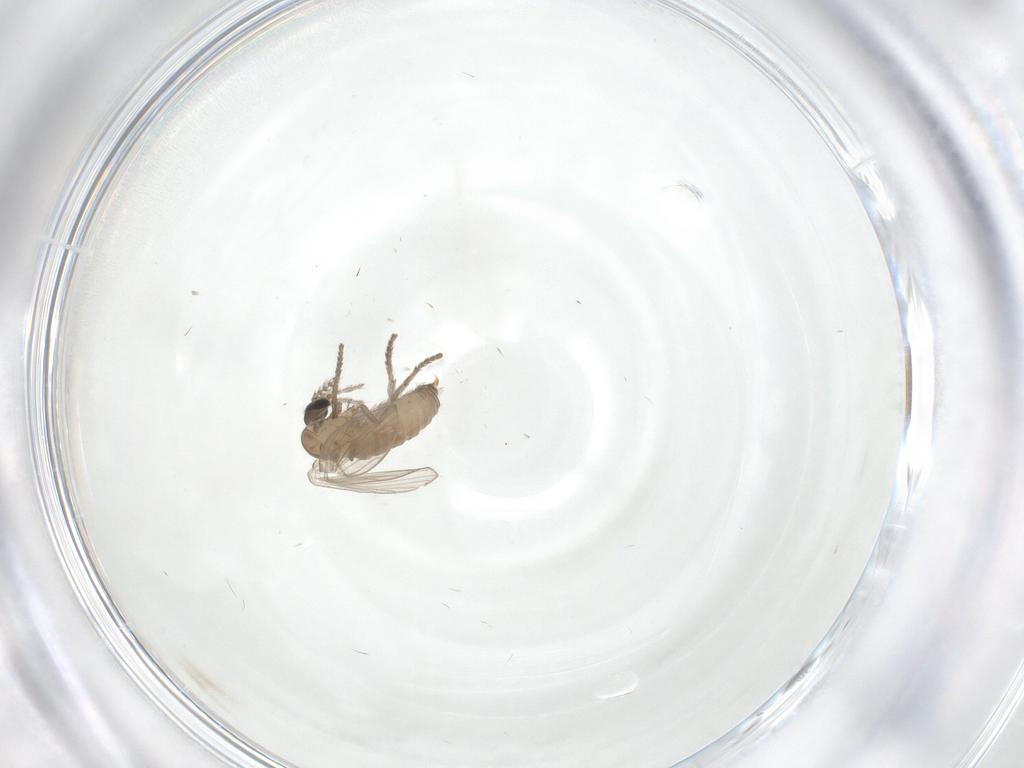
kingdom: Animalia
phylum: Arthropoda
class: Insecta
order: Diptera
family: Psychodidae
